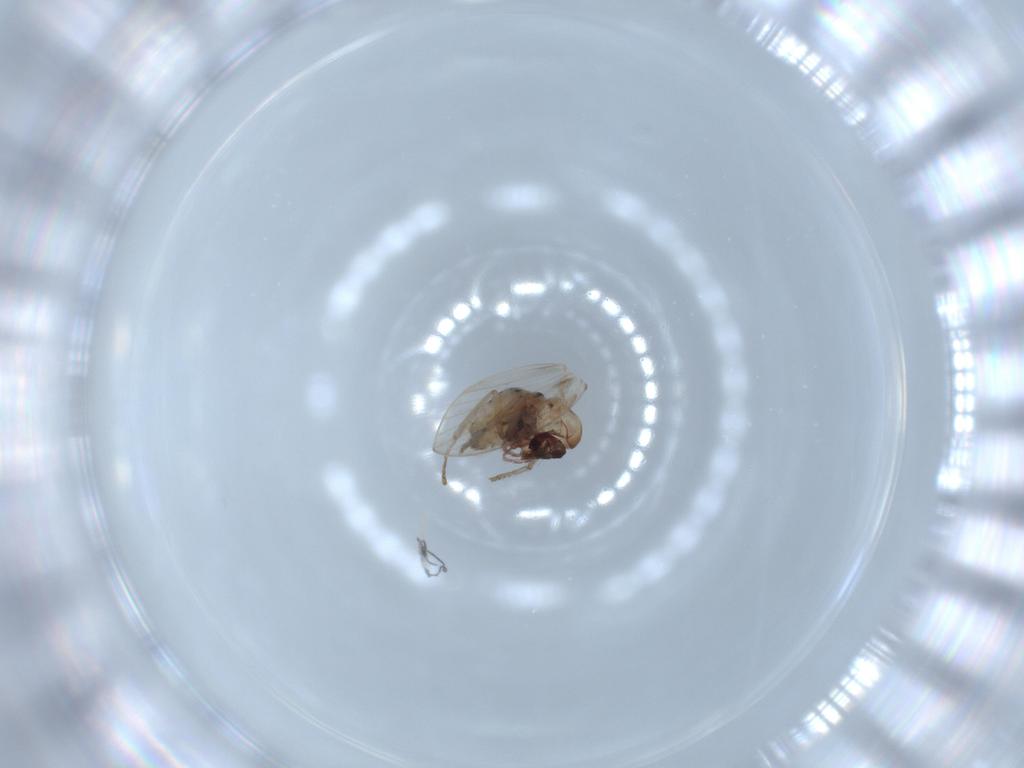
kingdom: Animalia
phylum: Arthropoda
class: Insecta
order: Diptera
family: Psychodidae
